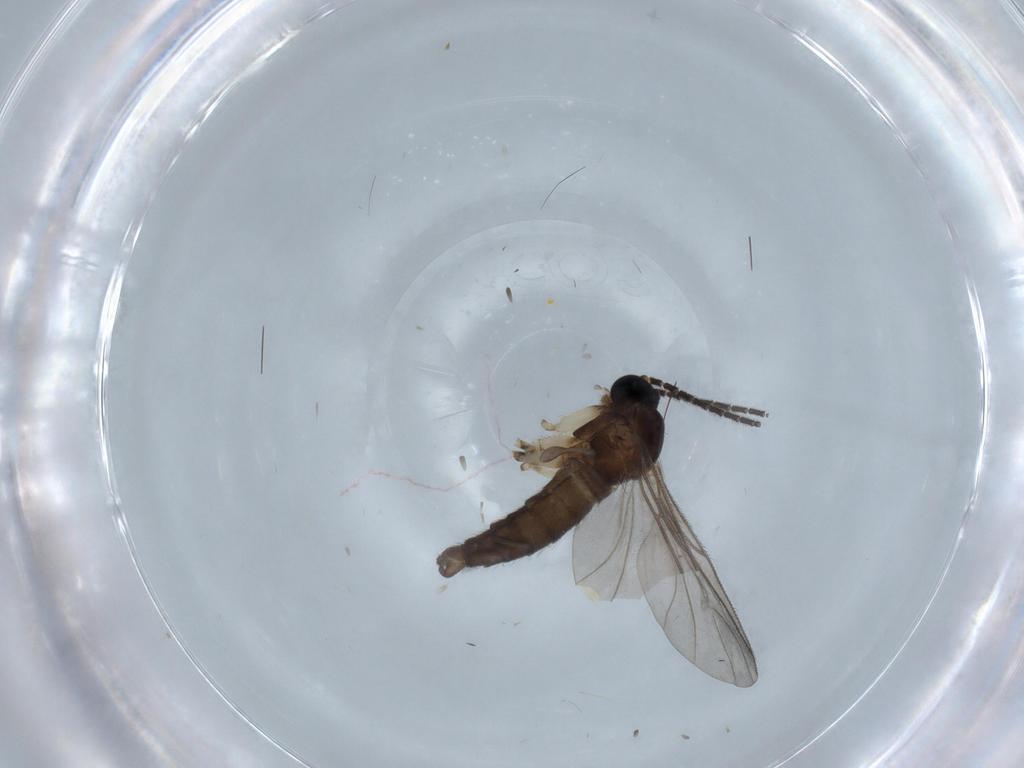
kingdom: Animalia
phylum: Arthropoda
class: Insecta
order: Diptera
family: Sciaridae
